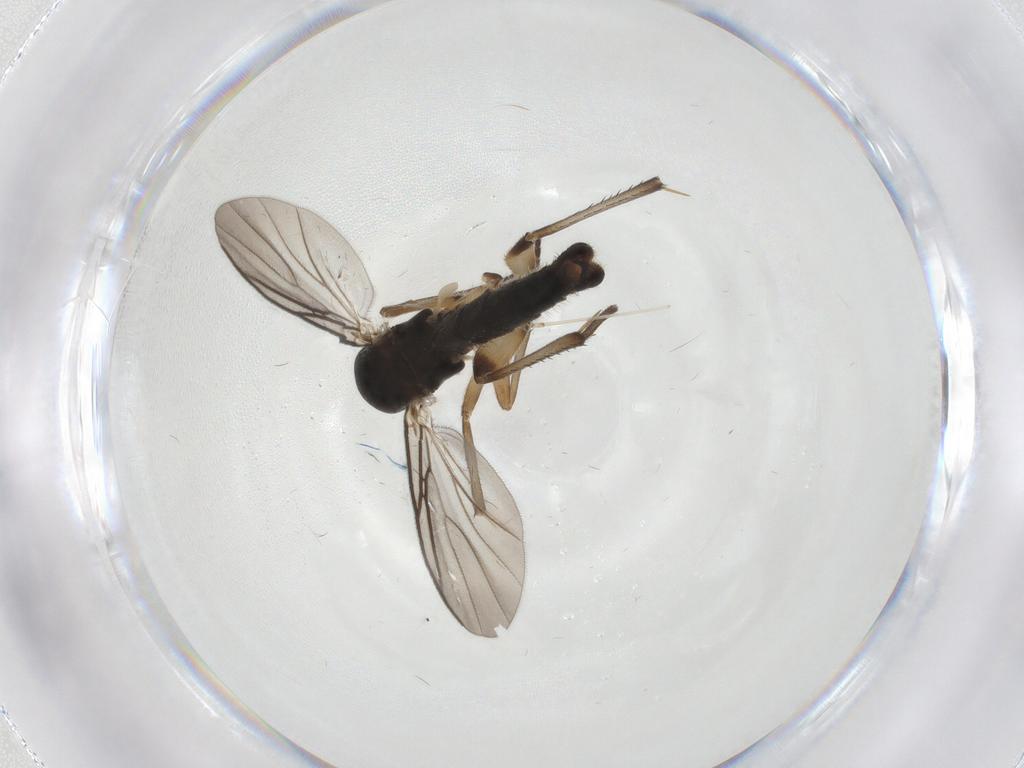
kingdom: Animalia
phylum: Arthropoda
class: Insecta
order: Diptera
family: Mycetophilidae
